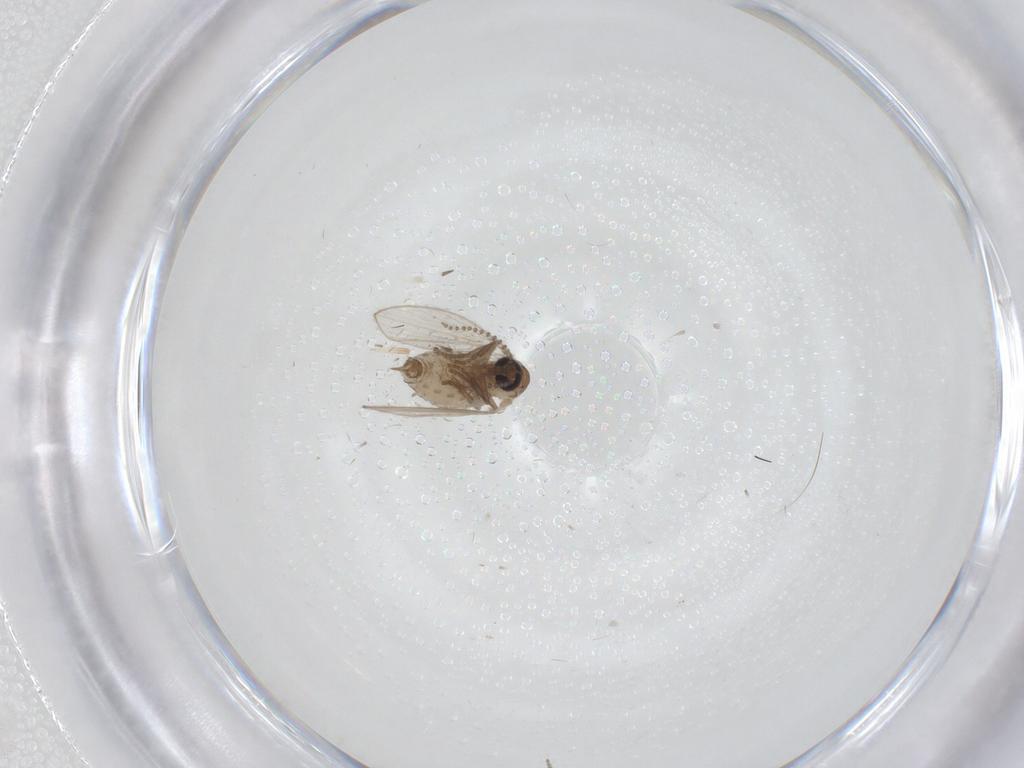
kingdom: Animalia
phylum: Arthropoda
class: Insecta
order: Diptera
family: Psychodidae
